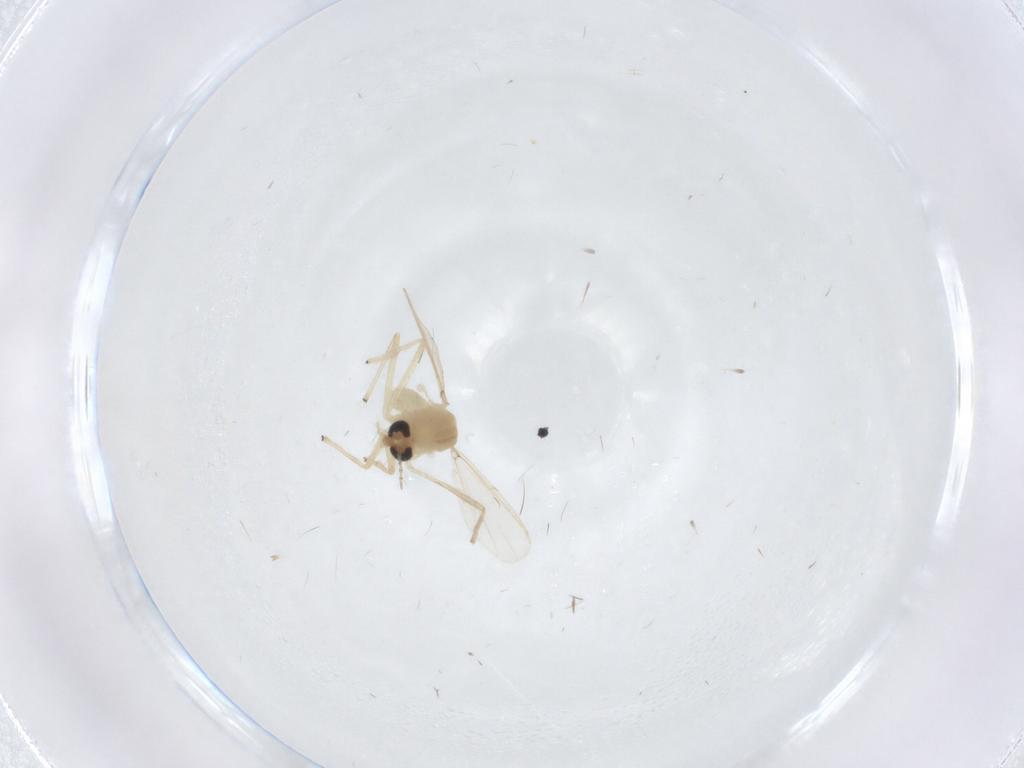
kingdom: Animalia
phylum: Arthropoda
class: Insecta
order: Diptera
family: Chironomidae
